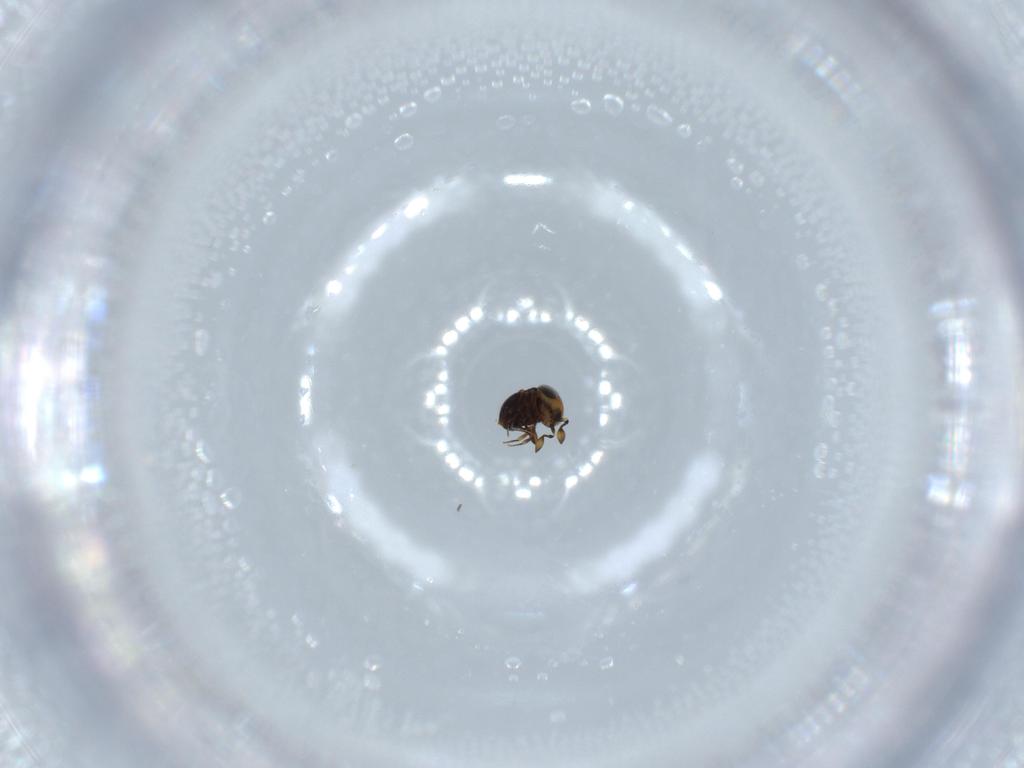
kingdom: Animalia
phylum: Arthropoda
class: Insecta
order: Hymenoptera
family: Scelionidae
